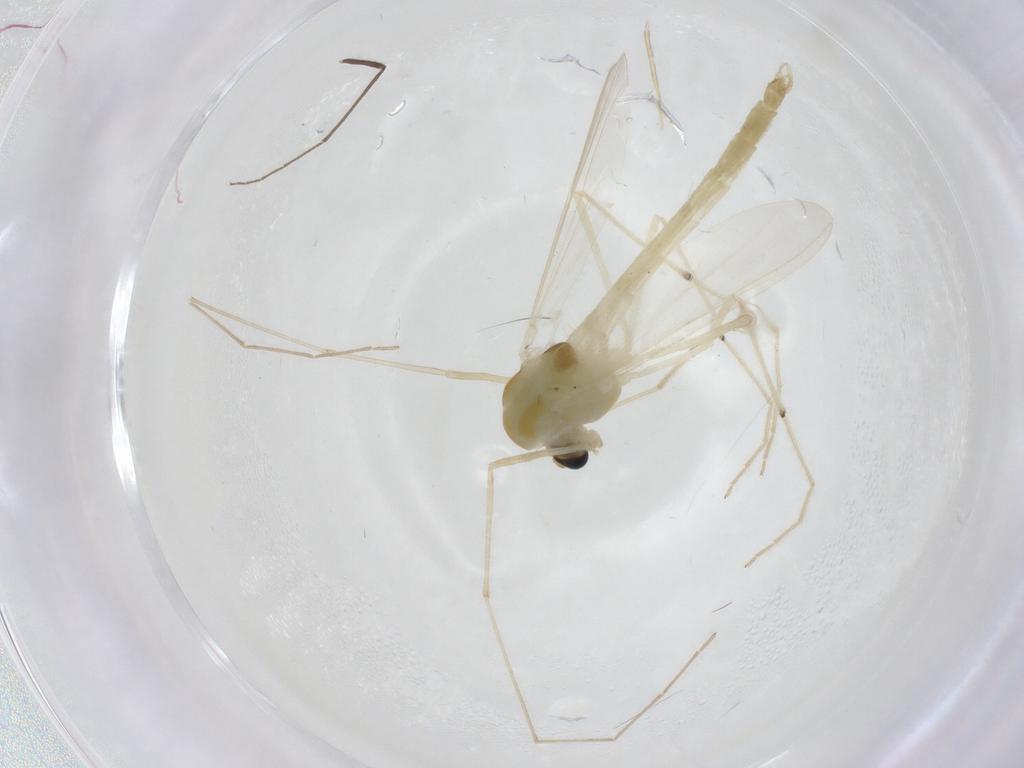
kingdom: Animalia
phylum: Arthropoda
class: Insecta
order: Diptera
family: Chironomidae
